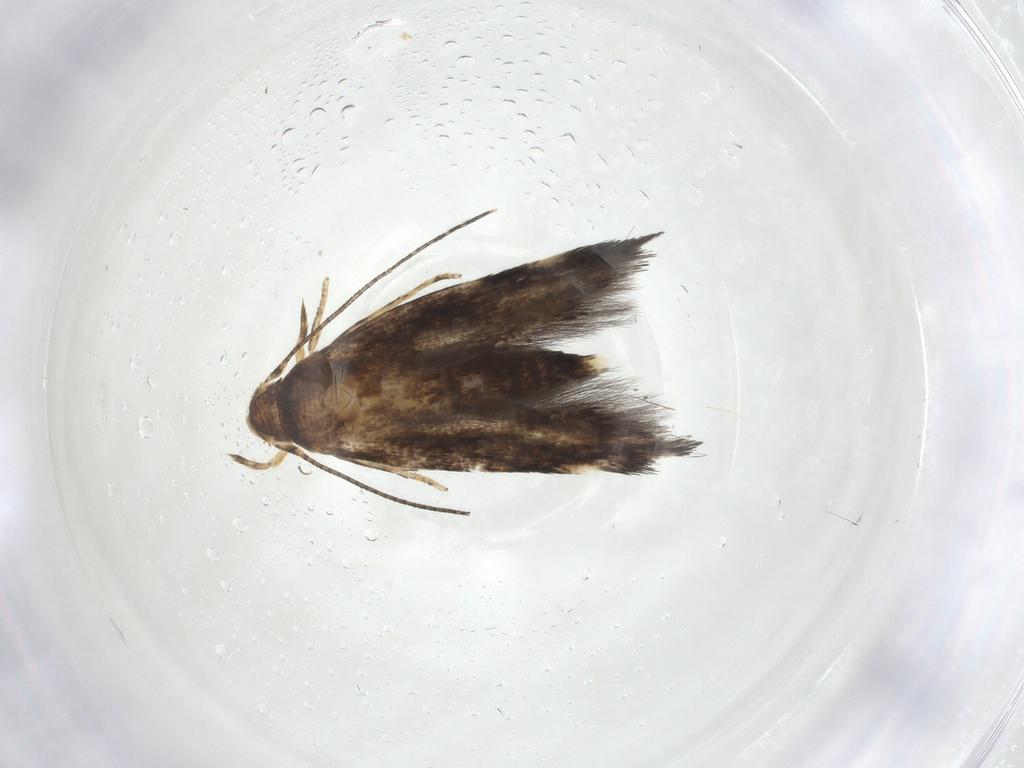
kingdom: Animalia
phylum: Arthropoda
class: Insecta
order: Lepidoptera
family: Momphidae
